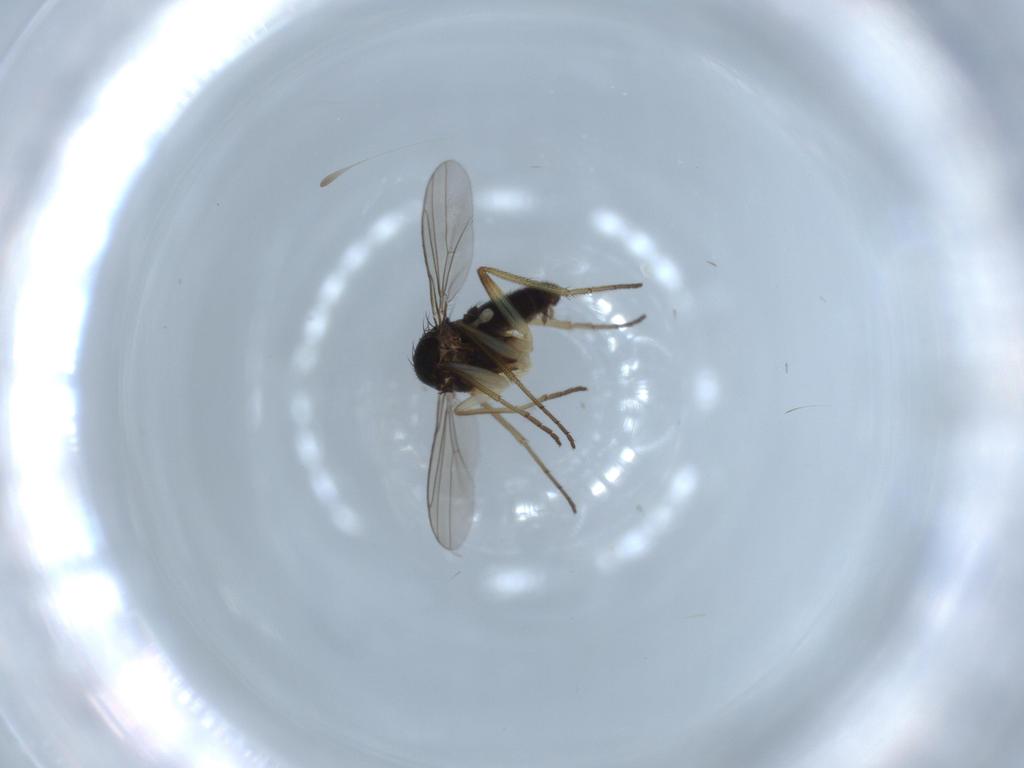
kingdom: Animalia
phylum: Arthropoda
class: Insecta
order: Diptera
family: Dolichopodidae
